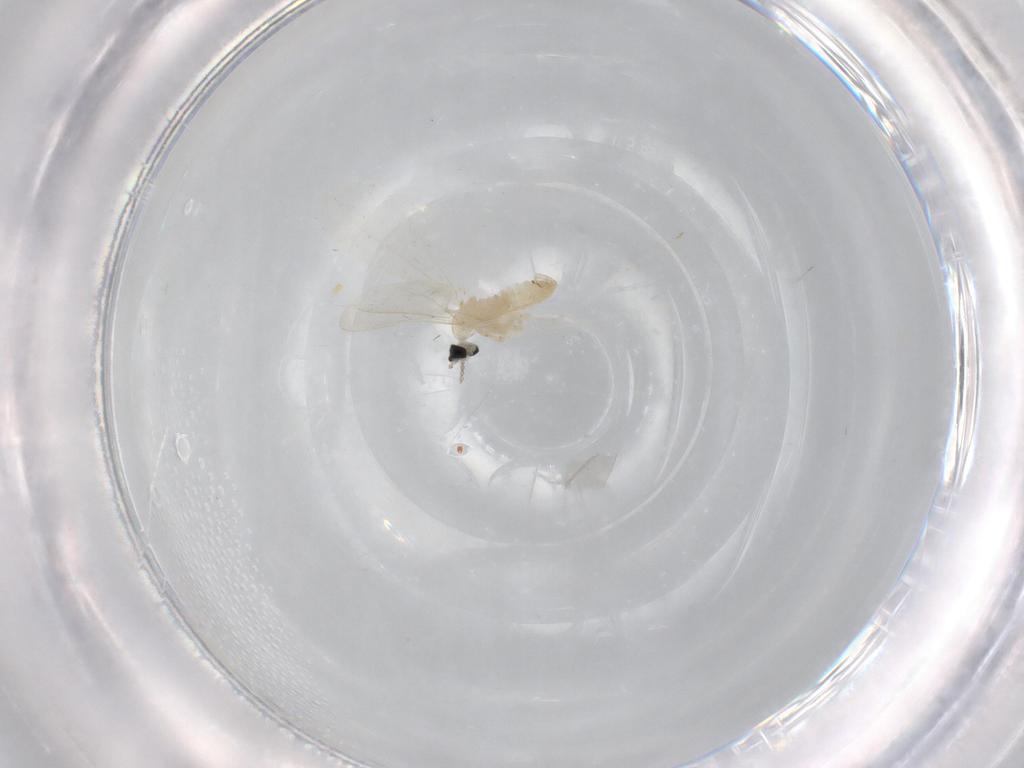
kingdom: Animalia
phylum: Arthropoda
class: Insecta
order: Diptera
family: Cecidomyiidae
